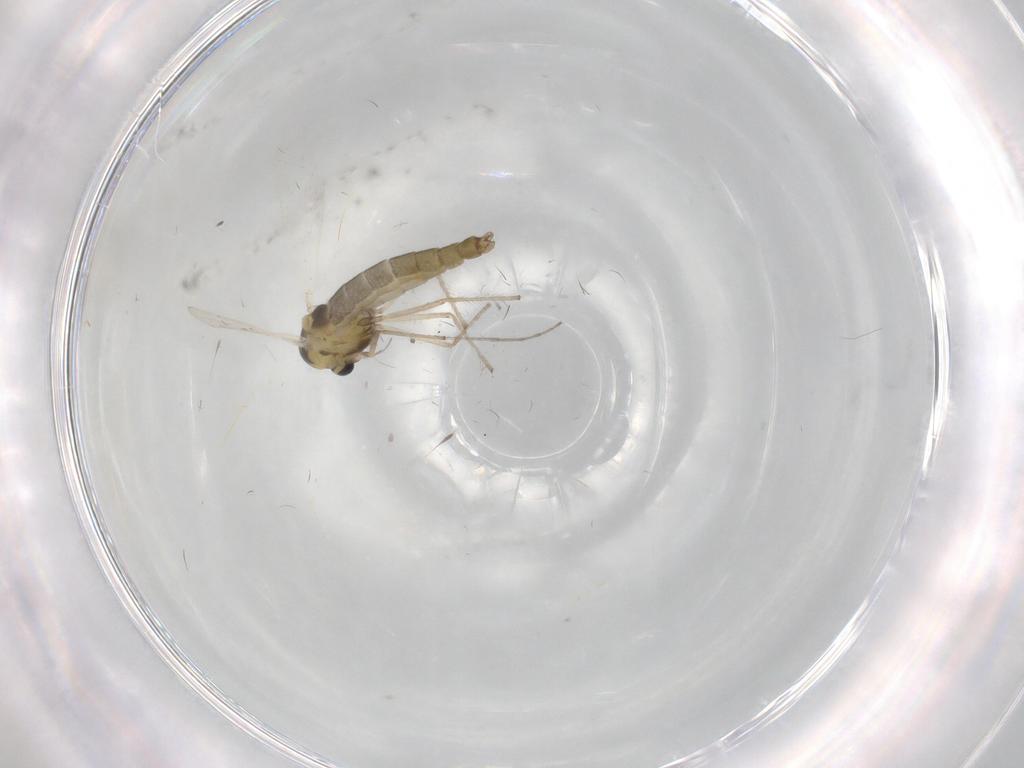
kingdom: Animalia
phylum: Arthropoda
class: Insecta
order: Diptera
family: Chironomidae
